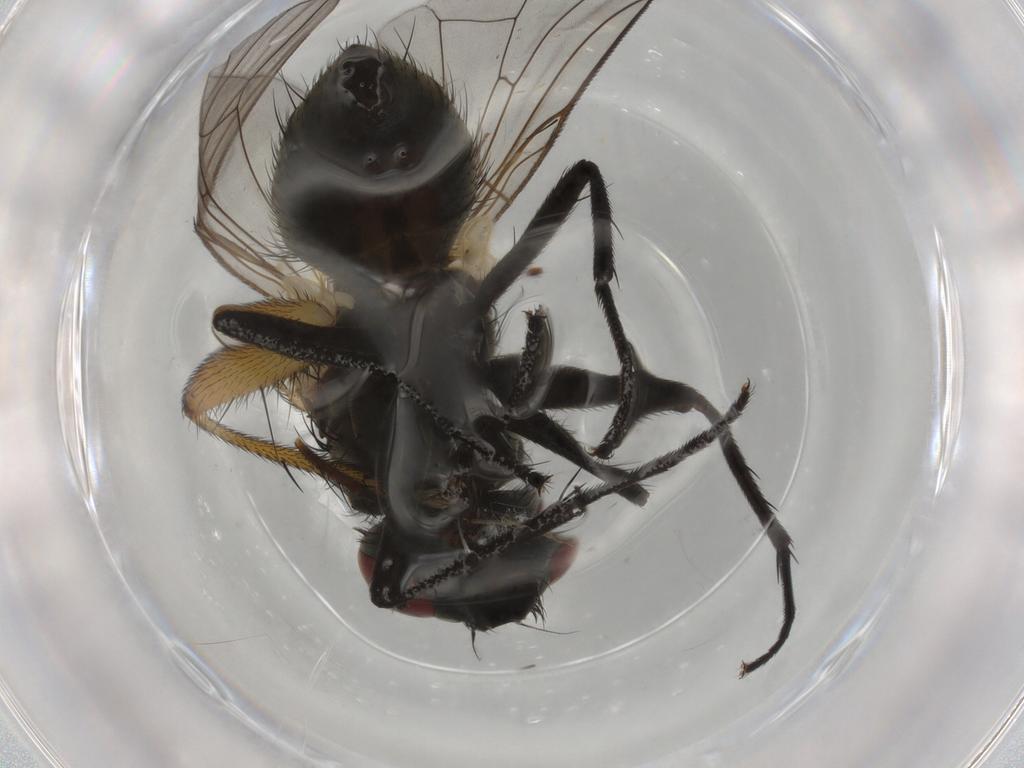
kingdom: Animalia
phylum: Arthropoda
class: Insecta
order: Diptera
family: Muscidae
